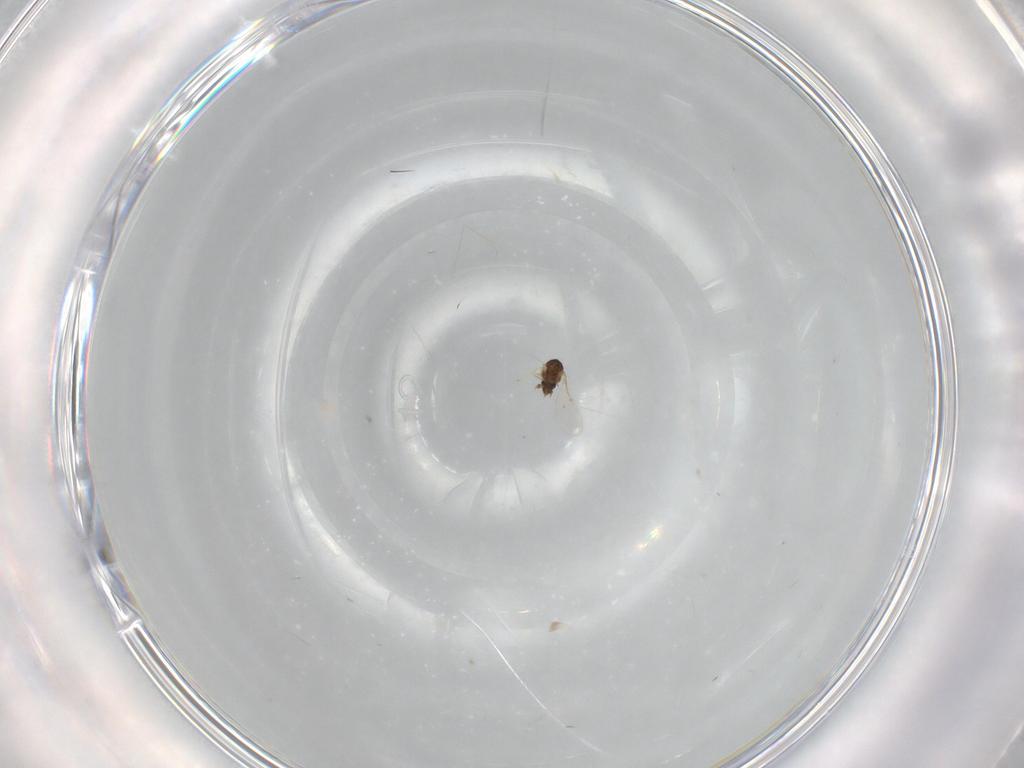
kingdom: Animalia
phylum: Arthropoda
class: Insecta
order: Hymenoptera
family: Encyrtidae
